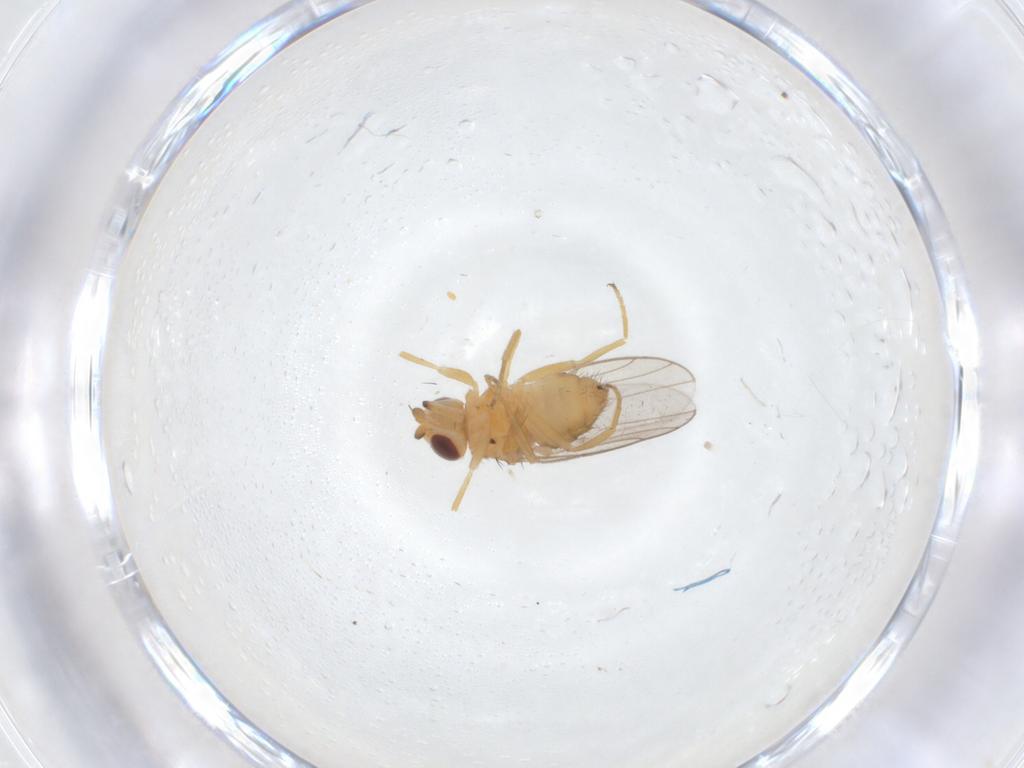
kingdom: Animalia
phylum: Arthropoda
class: Insecta
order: Diptera
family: Chloropidae
